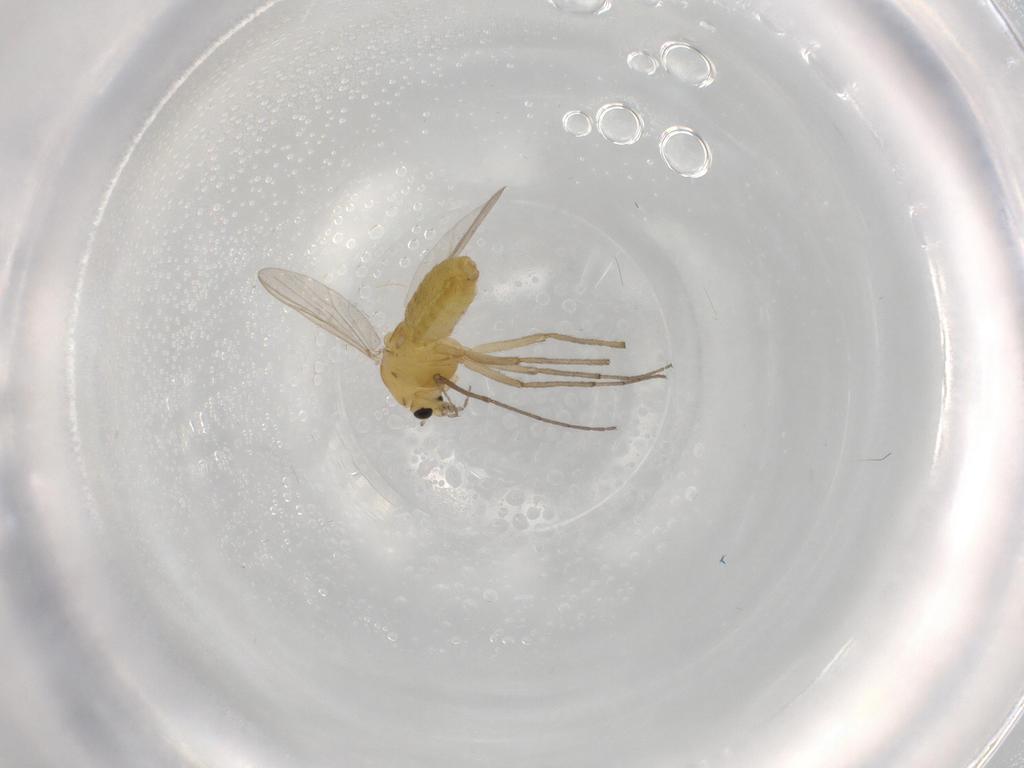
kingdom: Animalia
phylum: Arthropoda
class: Insecta
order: Diptera
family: Chironomidae
